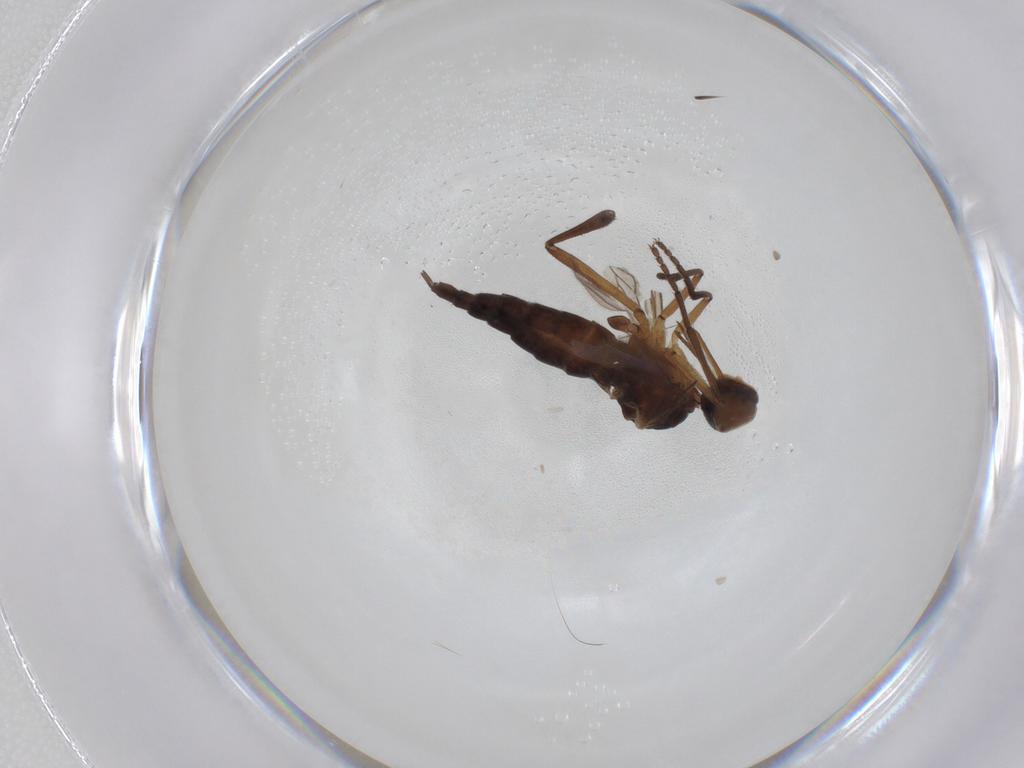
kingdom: Animalia
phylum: Arthropoda
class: Insecta
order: Diptera
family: Dolichopodidae
